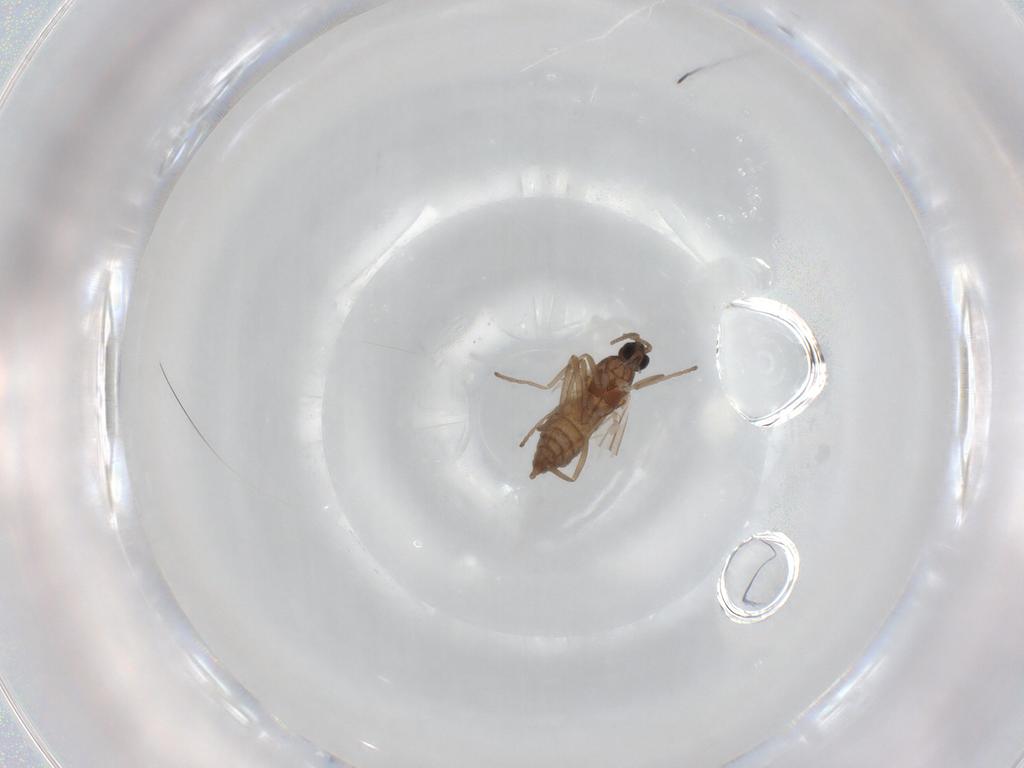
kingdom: Animalia
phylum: Arthropoda
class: Insecta
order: Diptera
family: Cecidomyiidae
